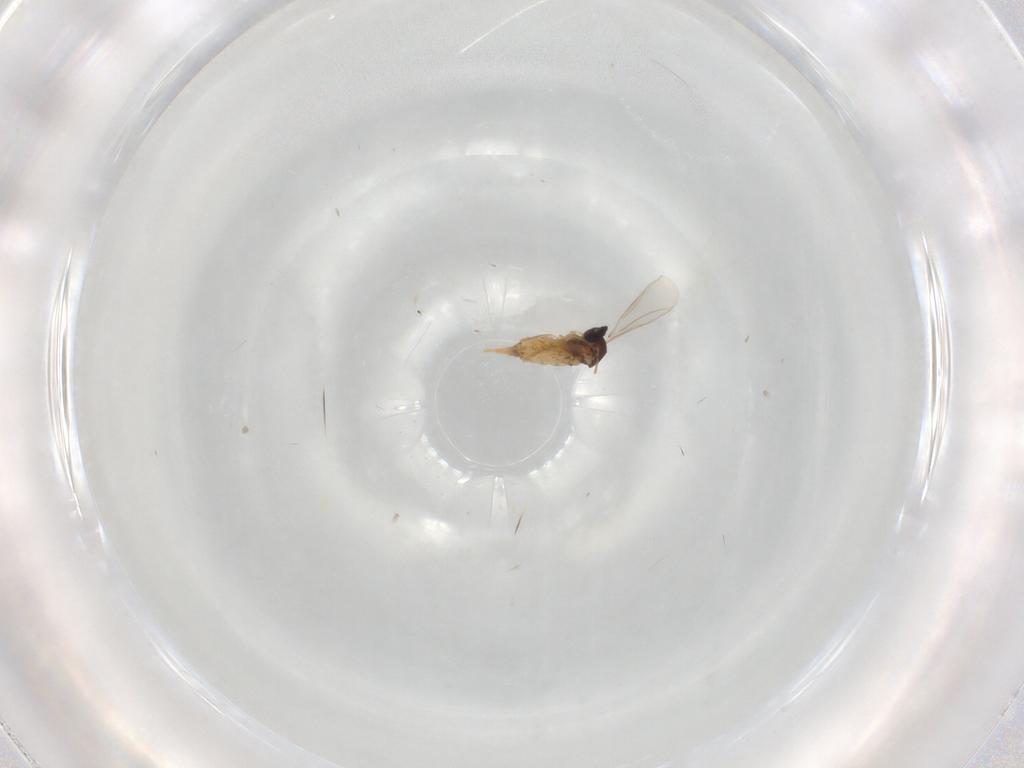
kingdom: Animalia
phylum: Arthropoda
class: Insecta
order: Diptera
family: Cecidomyiidae
